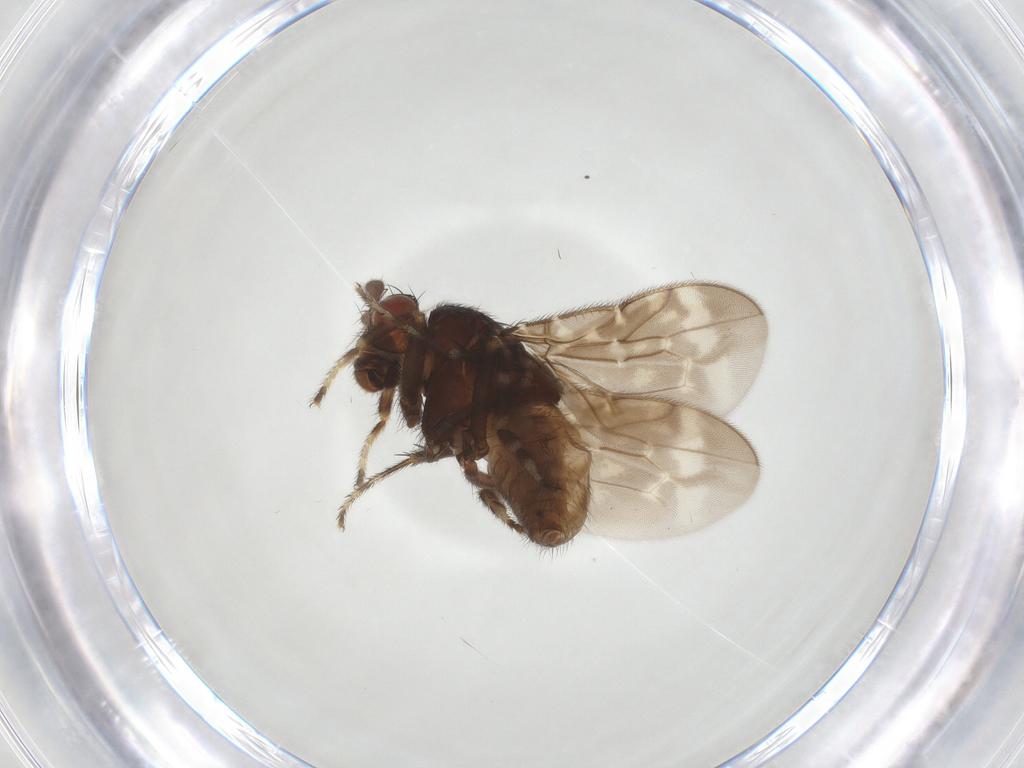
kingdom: Animalia
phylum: Arthropoda
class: Insecta
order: Diptera
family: Sphaeroceridae
